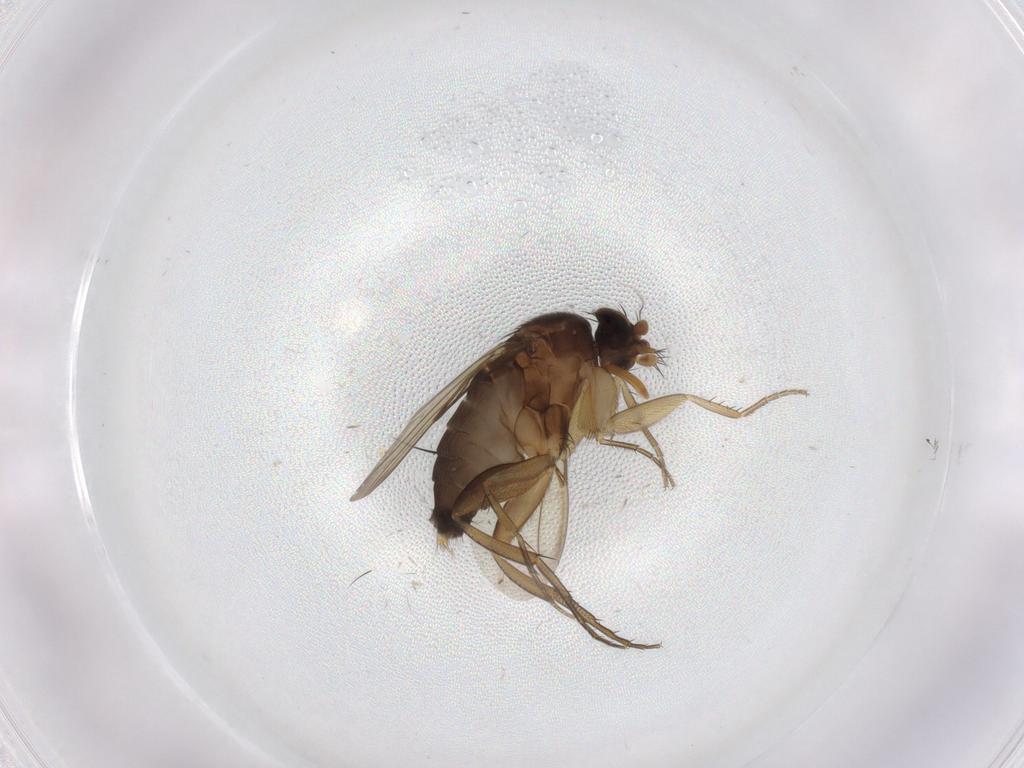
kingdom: Animalia
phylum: Arthropoda
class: Insecta
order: Diptera
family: Phoridae
